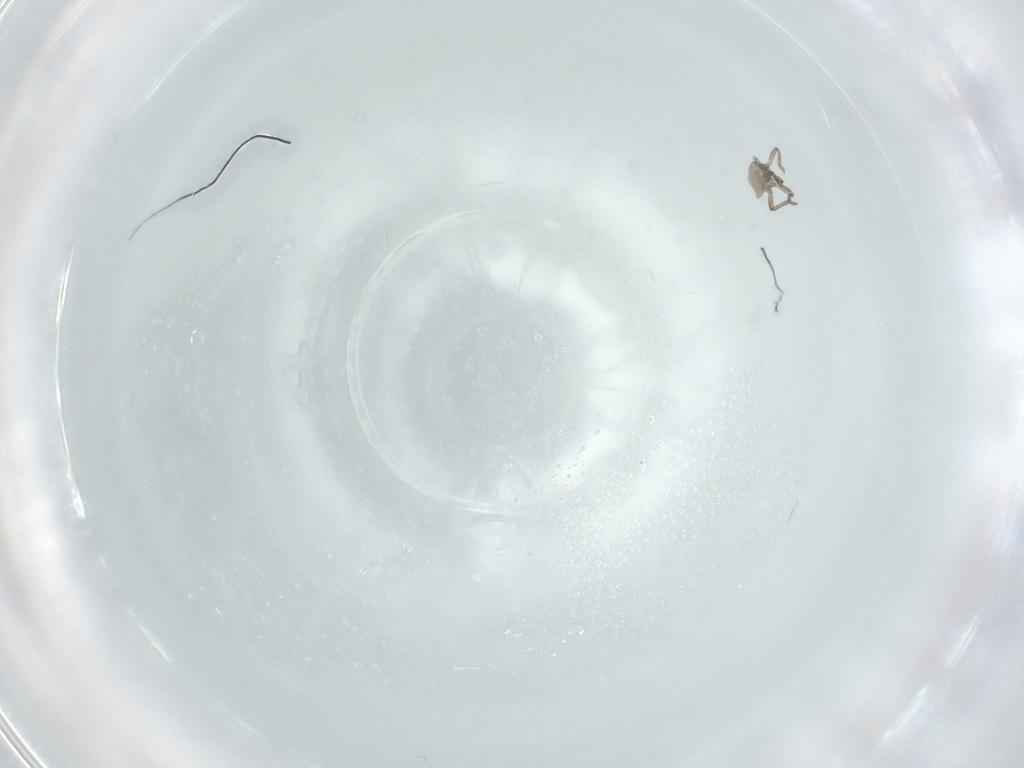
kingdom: Animalia
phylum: Arthropoda
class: Insecta
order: Hemiptera
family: Aphididae
